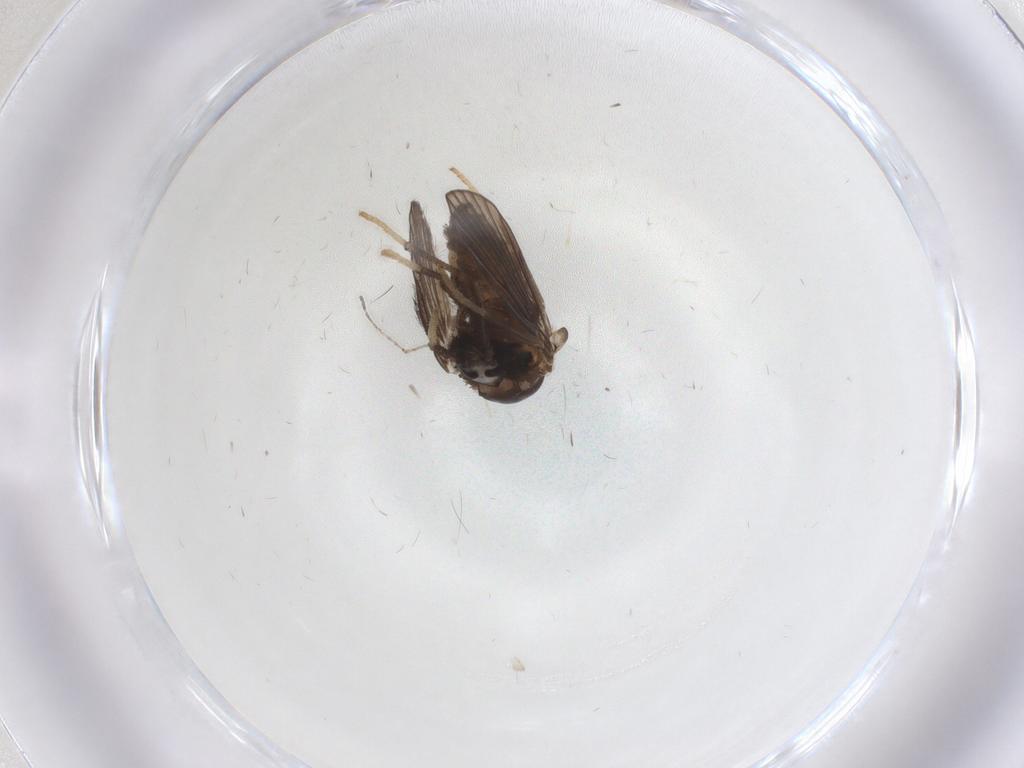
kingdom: Animalia
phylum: Arthropoda
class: Insecta
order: Diptera
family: Psychodidae
